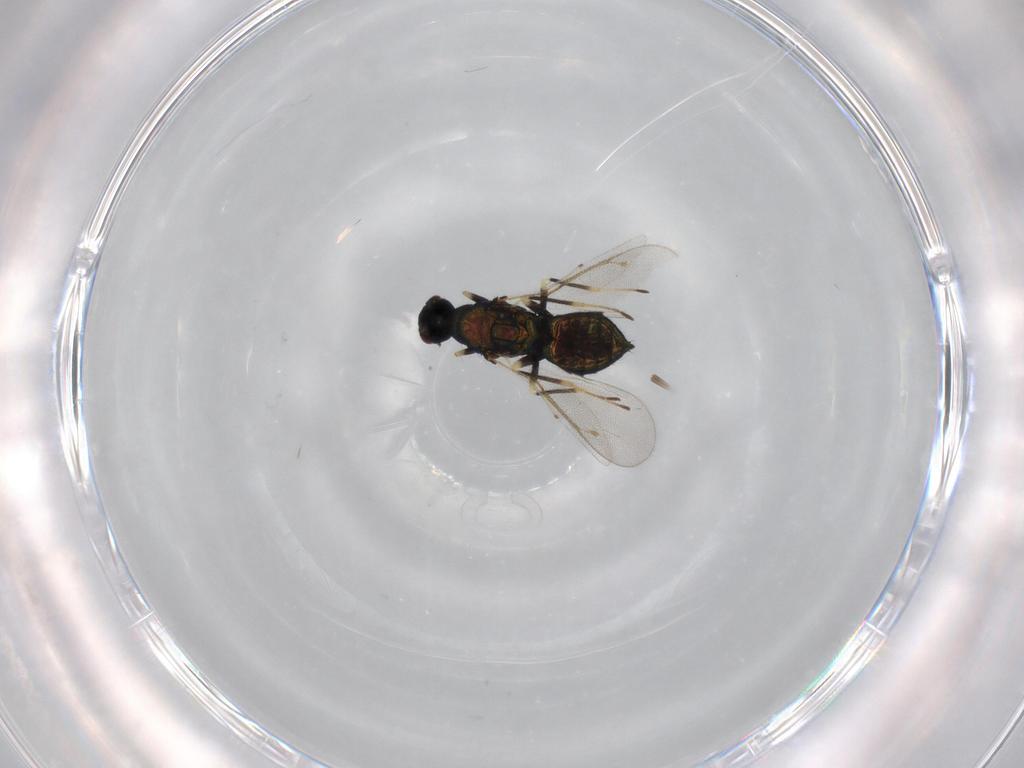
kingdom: Animalia
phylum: Arthropoda
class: Insecta
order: Hymenoptera
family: Eulophidae
